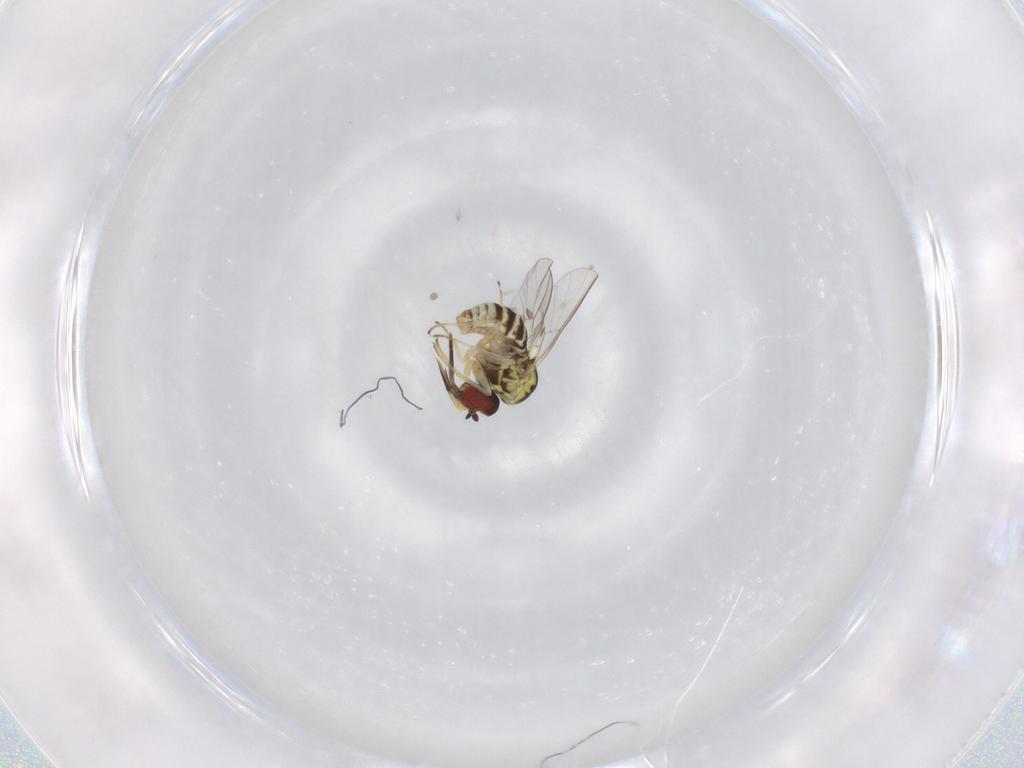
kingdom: Animalia
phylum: Arthropoda
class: Insecta
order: Diptera
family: Bombyliidae
